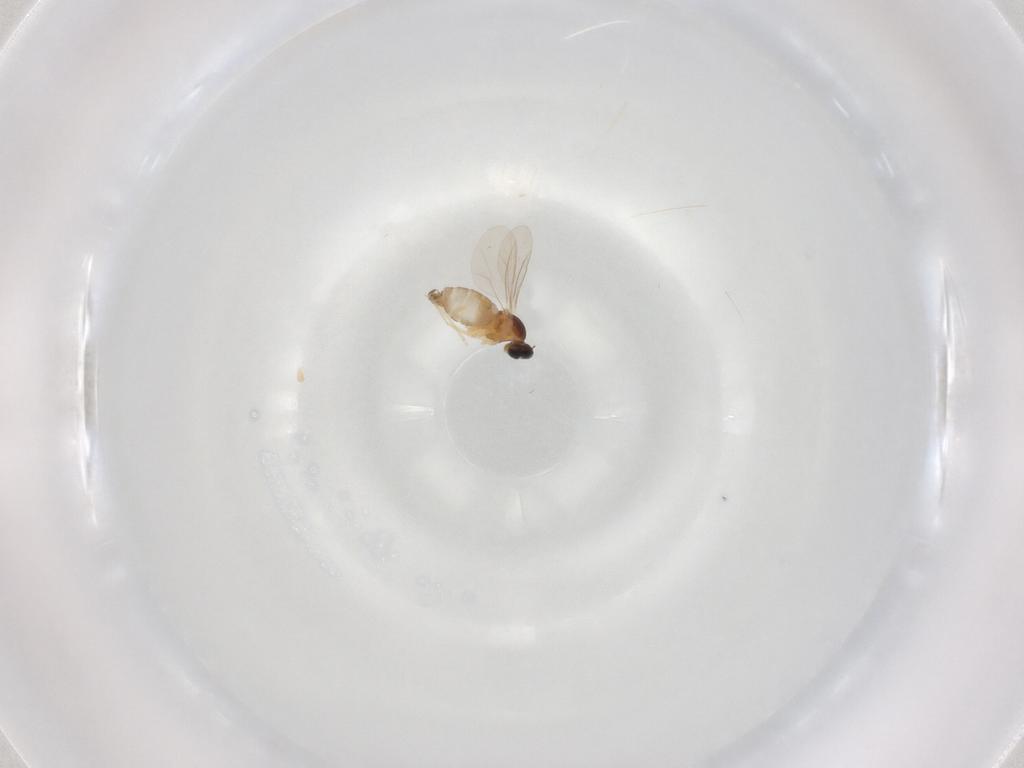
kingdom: Animalia
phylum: Arthropoda
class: Insecta
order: Diptera
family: Cecidomyiidae
